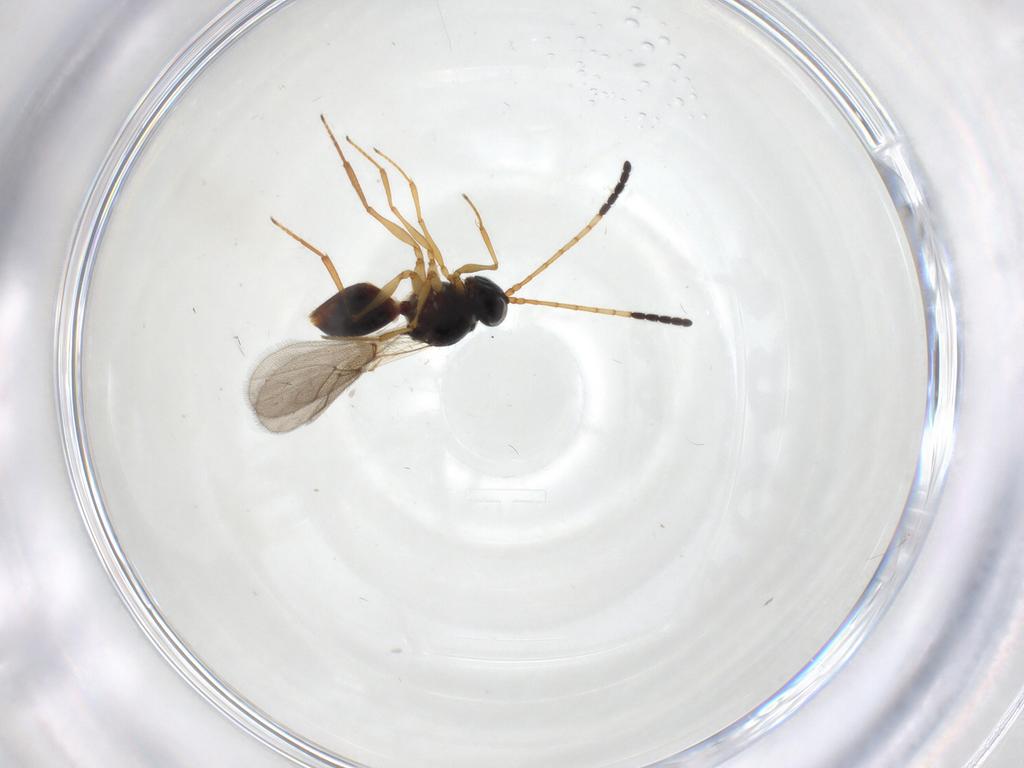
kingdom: Animalia
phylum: Arthropoda
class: Insecta
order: Hymenoptera
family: Figitidae
